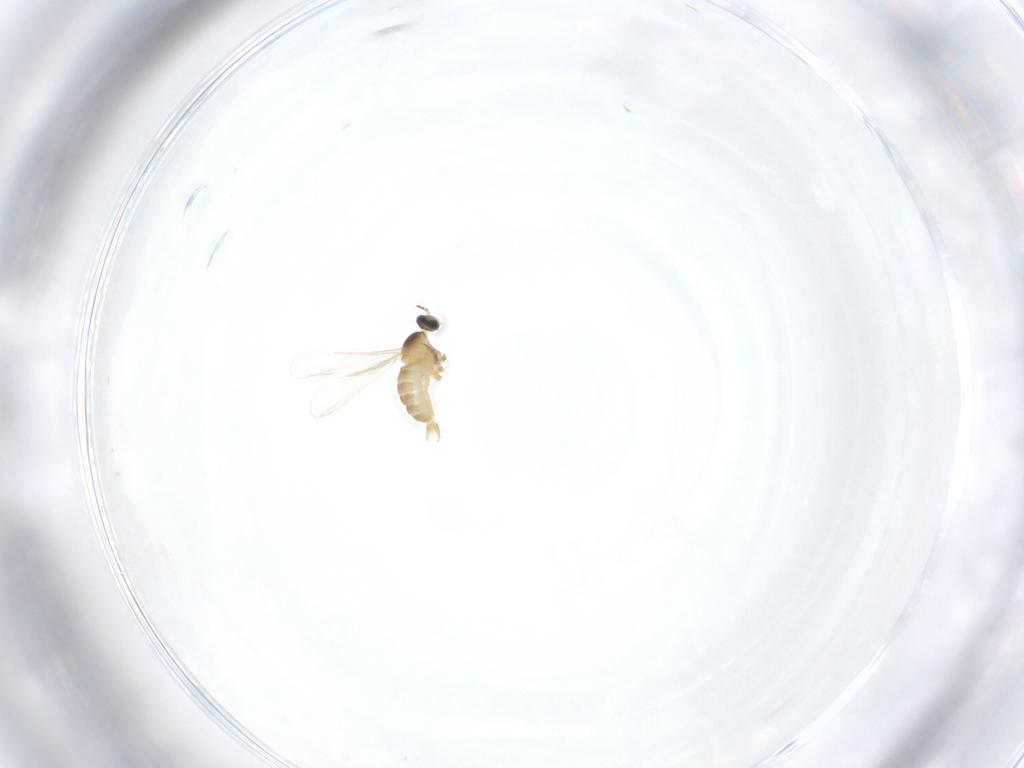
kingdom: Animalia
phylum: Arthropoda
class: Insecta
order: Diptera
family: Cecidomyiidae
